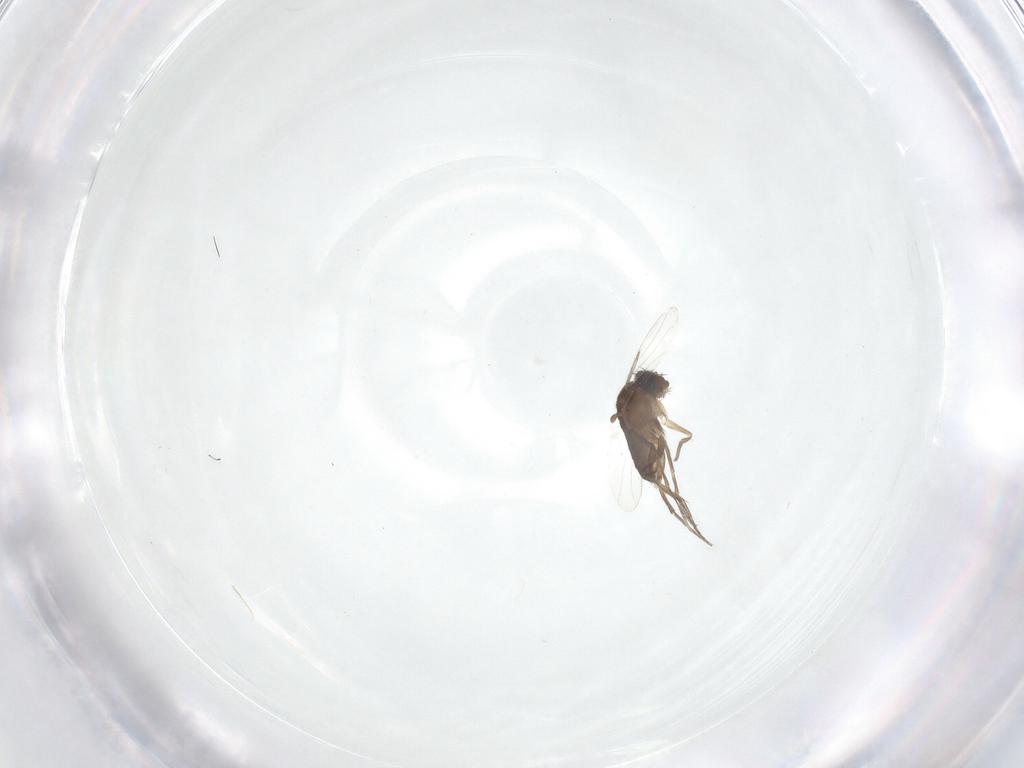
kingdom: Animalia
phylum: Arthropoda
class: Insecta
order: Diptera
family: Phoridae
